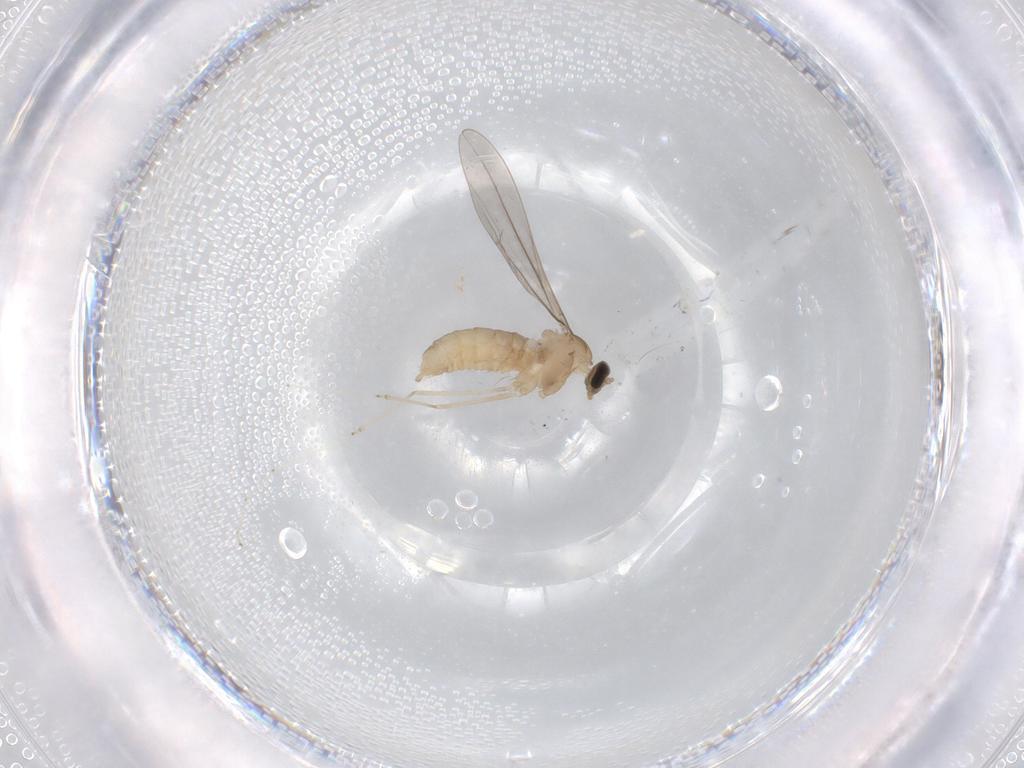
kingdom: Animalia
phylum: Arthropoda
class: Insecta
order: Diptera
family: Cecidomyiidae
